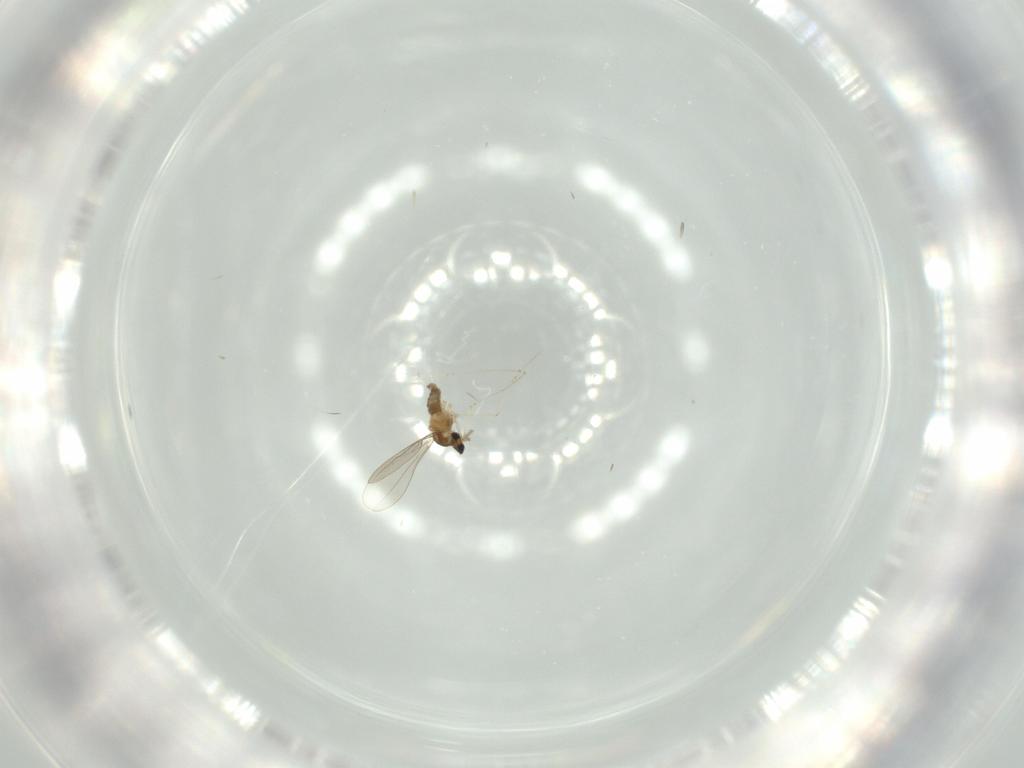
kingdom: Animalia
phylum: Arthropoda
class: Insecta
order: Diptera
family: Cecidomyiidae
